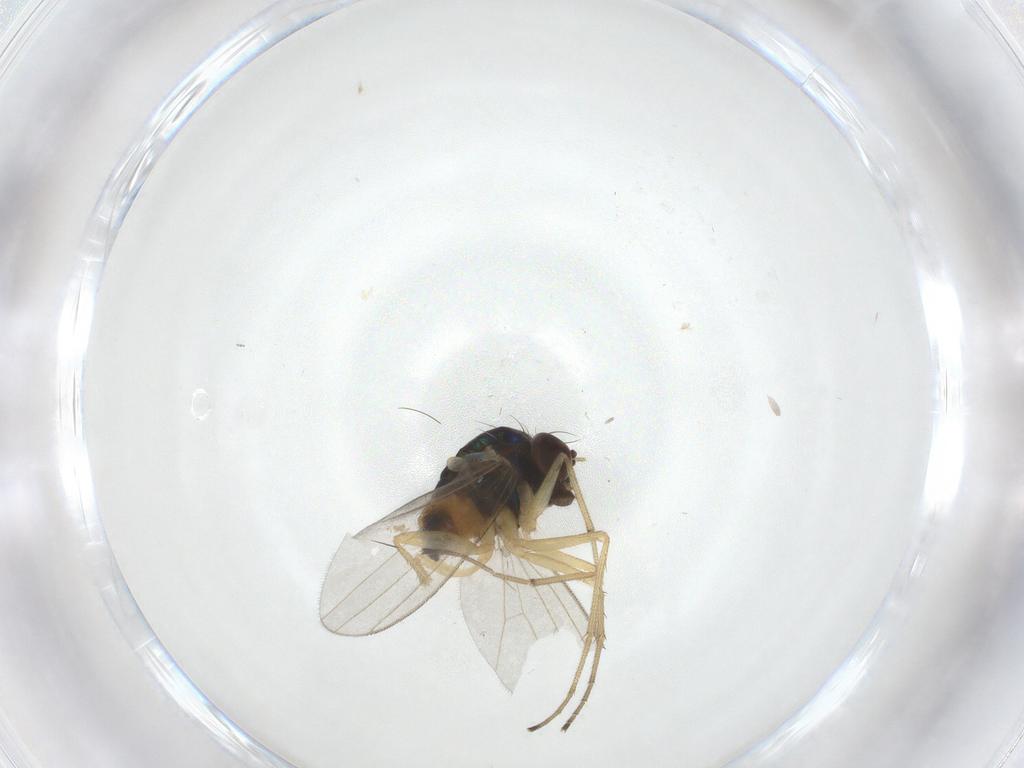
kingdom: Animalia
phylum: Arthropoda
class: Insecta
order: Diptera
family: Dolichopodidae
